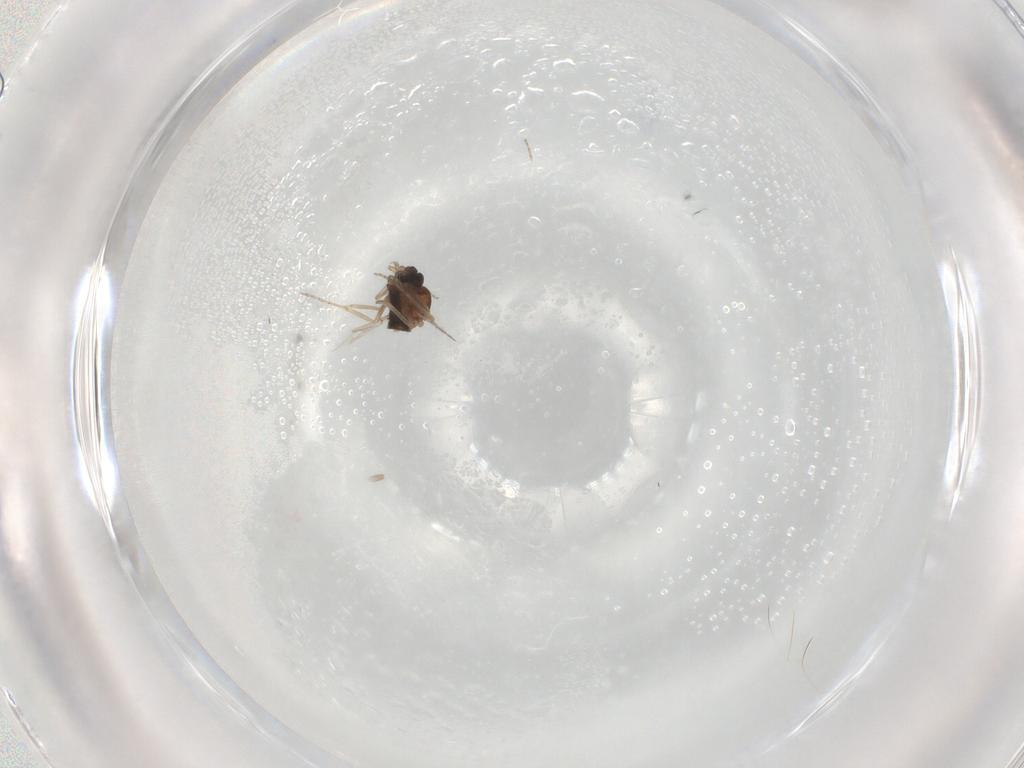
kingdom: Animalia
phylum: Arthropoda
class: Insecta
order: Diptera
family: Ceratopogonidae
